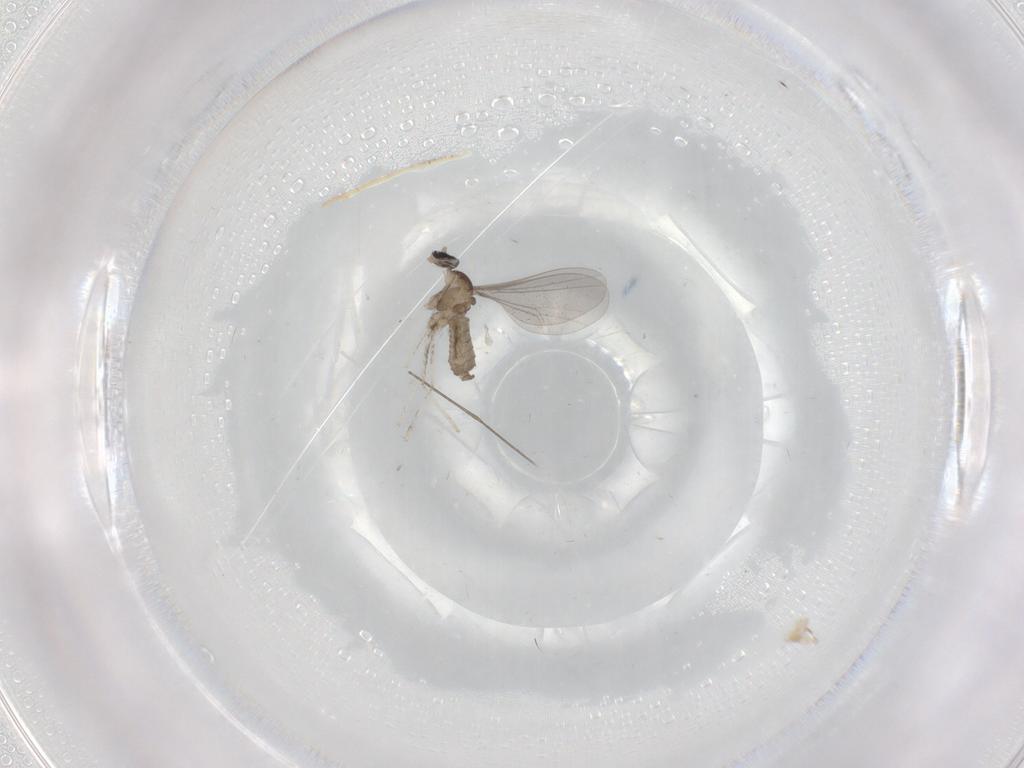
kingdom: Animalia
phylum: Arthropoda
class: Insecta
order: Diptera
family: Cecidomyiidae
